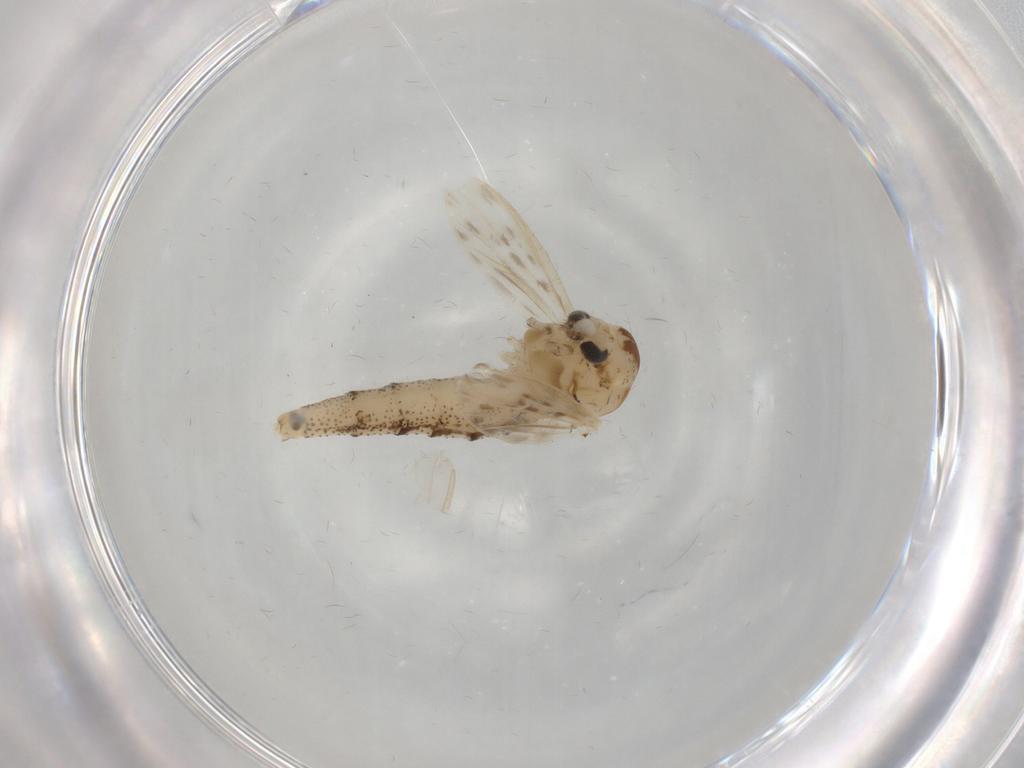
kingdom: Animalia
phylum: Arthropoda
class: Insecta
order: Diptera
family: Chaoboridae
